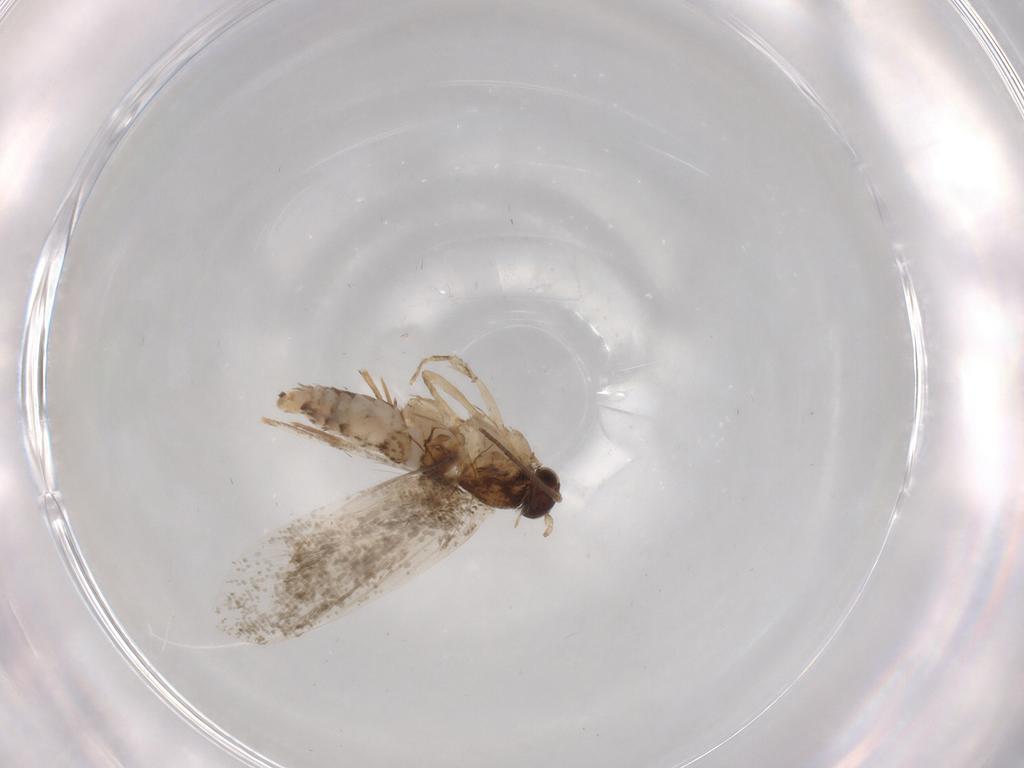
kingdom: Animalia
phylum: Arthropoda
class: Insecta
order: Lepidoptera
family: Crambidae
